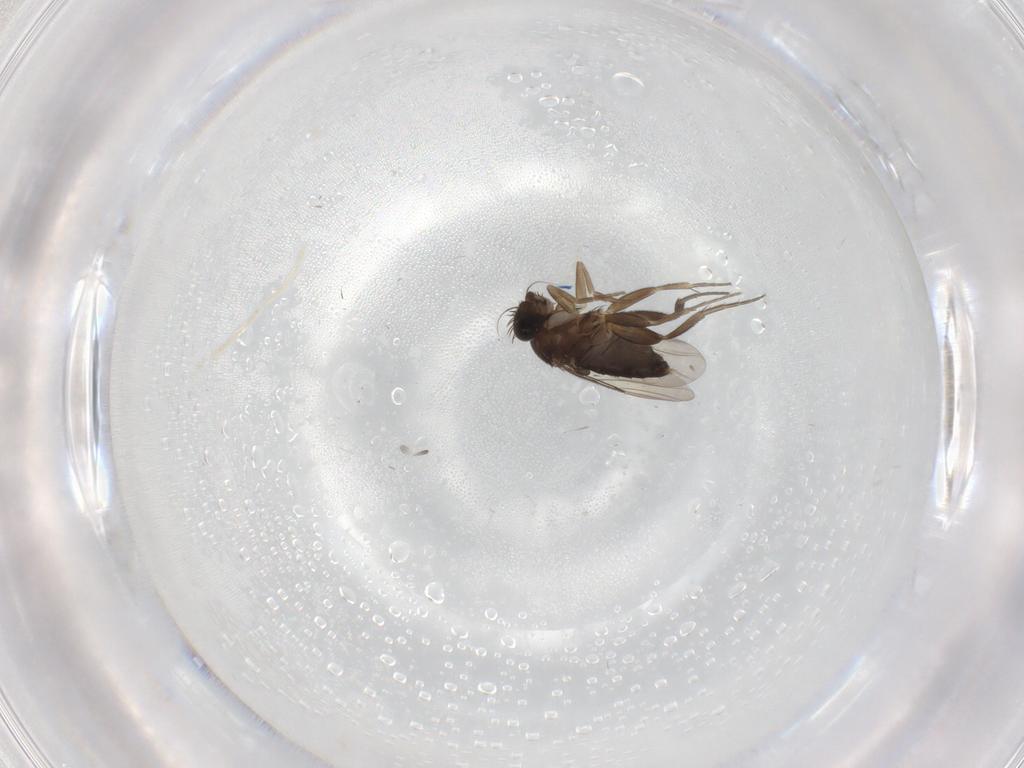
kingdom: Animalia
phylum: Arthropoda
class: Insecta
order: Diptera
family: Phoridae
